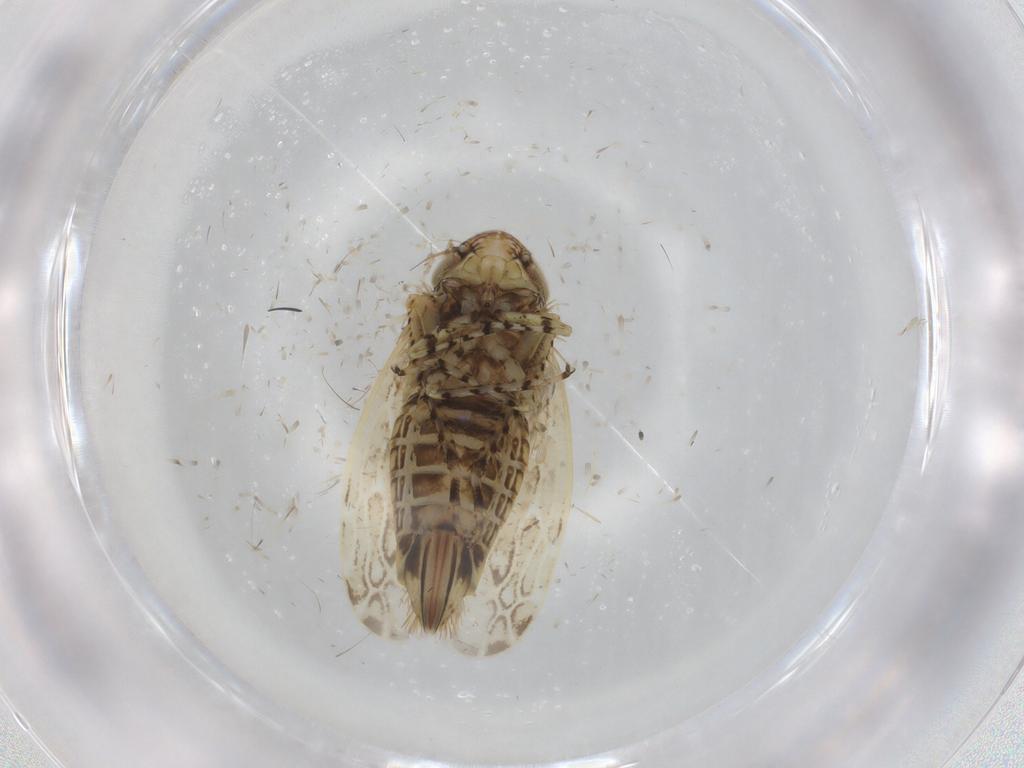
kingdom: Animalia
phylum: Arthropoda
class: Insecta
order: Hemiptera
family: Cicadellidae
